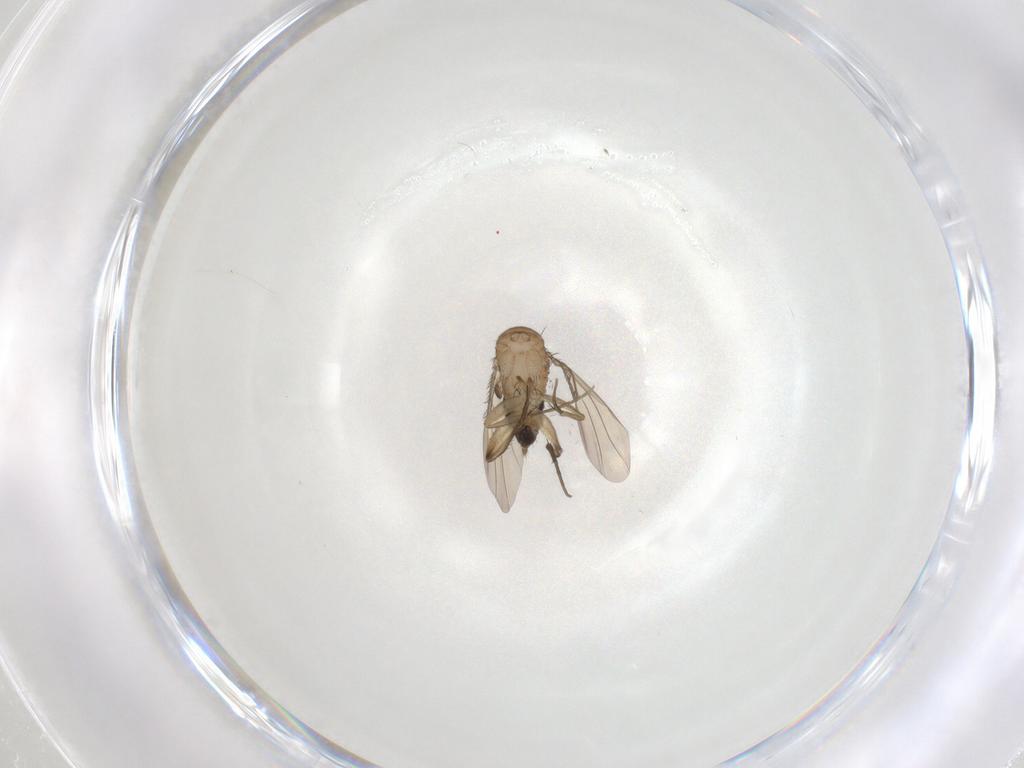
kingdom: Animalia
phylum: Arthropoda
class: Insecta
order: Diptera
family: Phoridae
